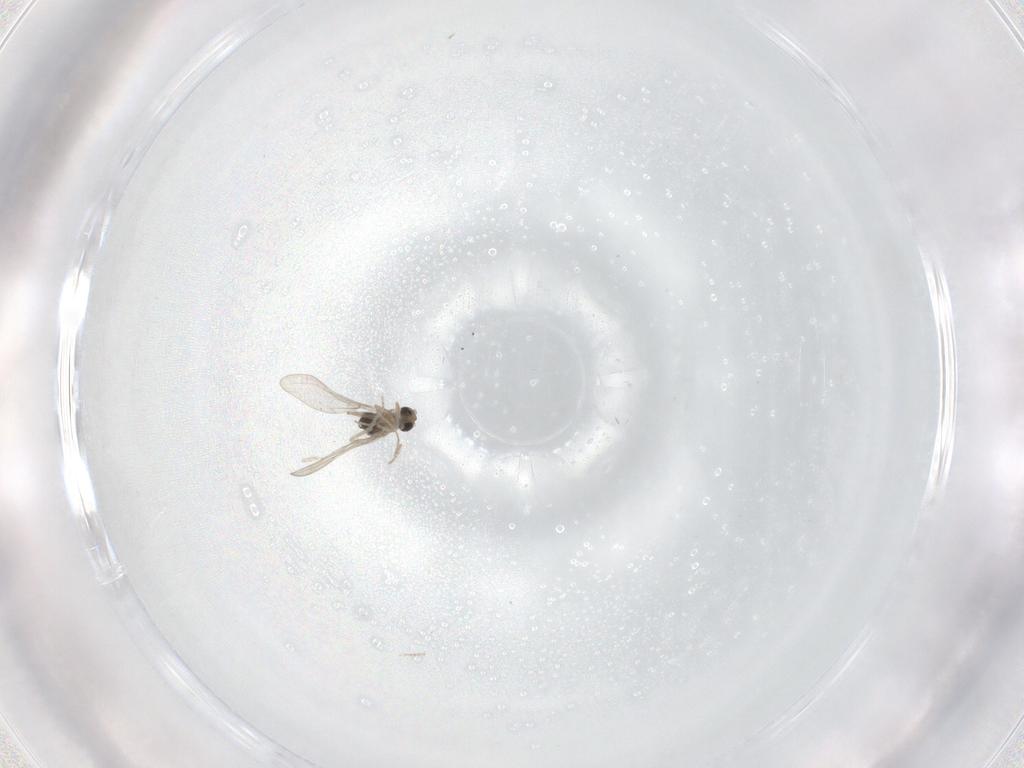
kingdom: Animalia
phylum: Arthropoda
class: Insecta
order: Diptera
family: Cecidomyiidae
